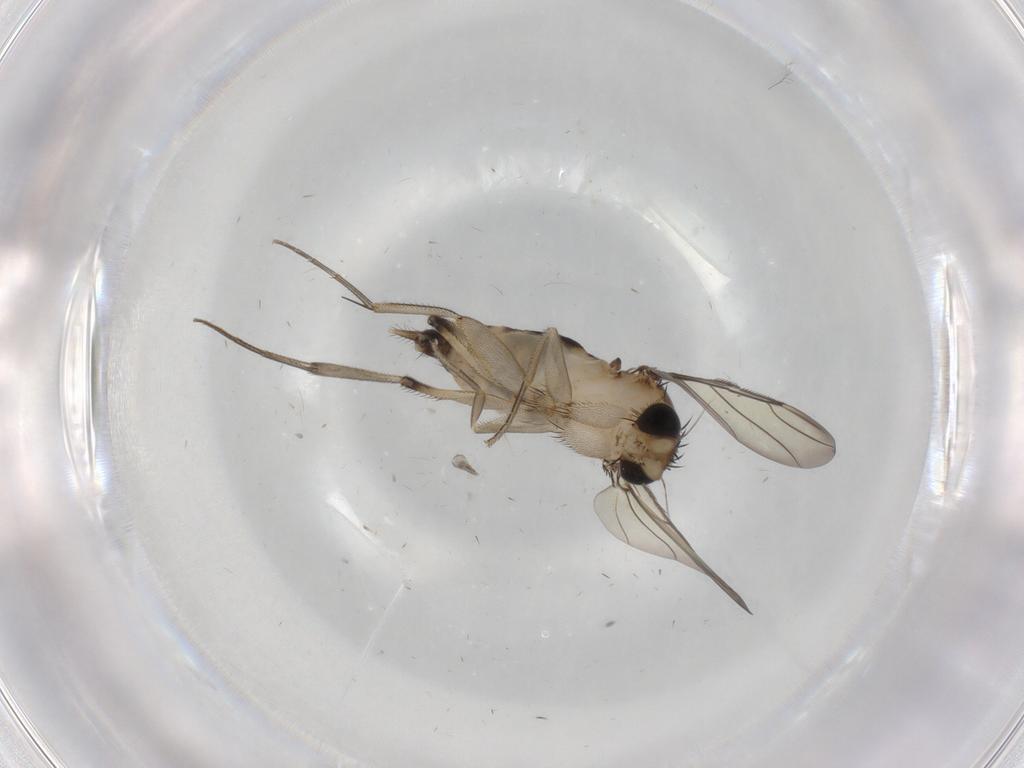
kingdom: Animalia
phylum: Arthropoda
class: Insecta
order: Diptera
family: Phoridae
